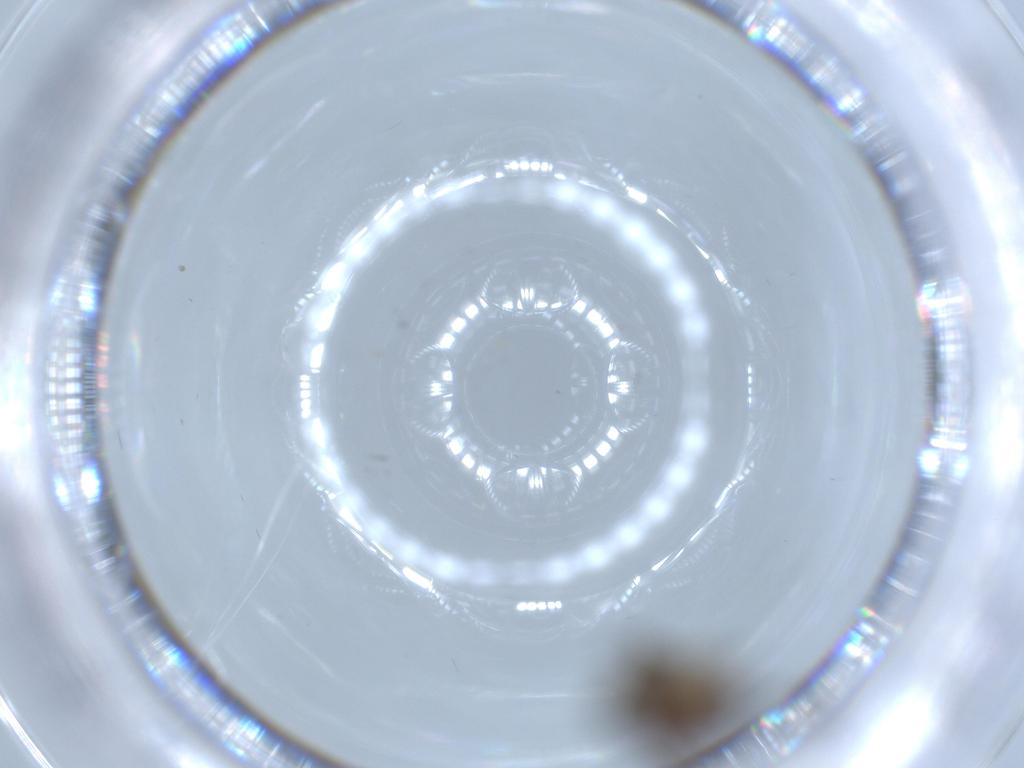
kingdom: Animalia
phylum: Arthropoda
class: Insecta
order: Diptera
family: Sciaridae
